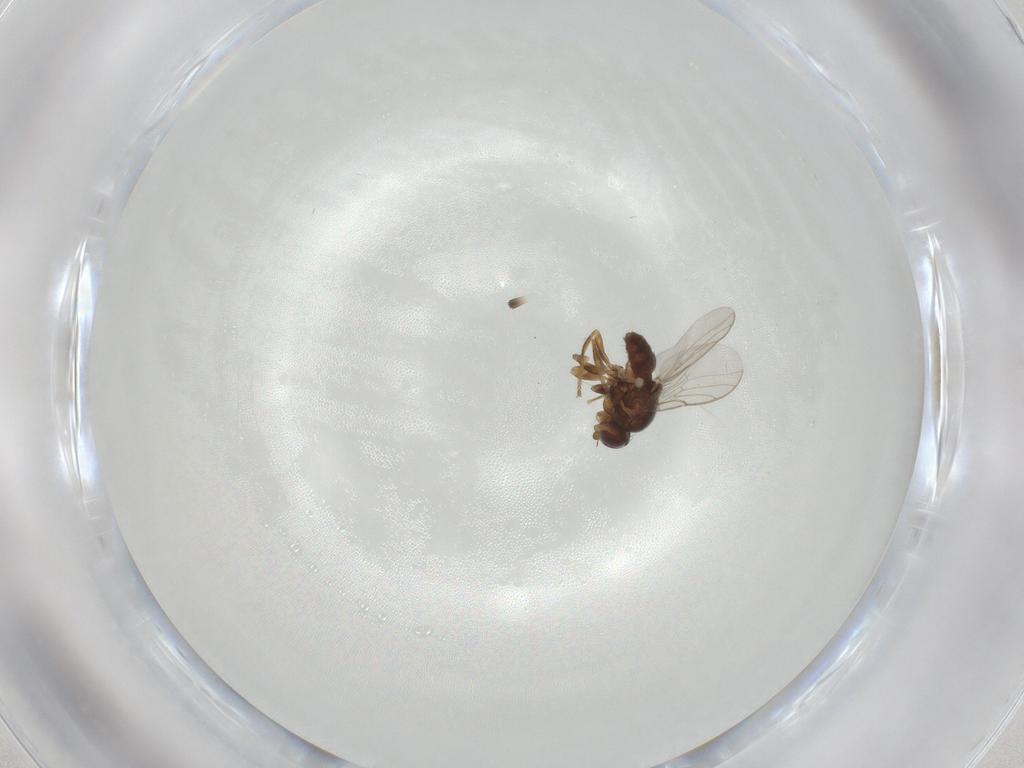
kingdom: Animalia
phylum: Arthropoda
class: Insecta
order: Diptera
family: Chloropidae
